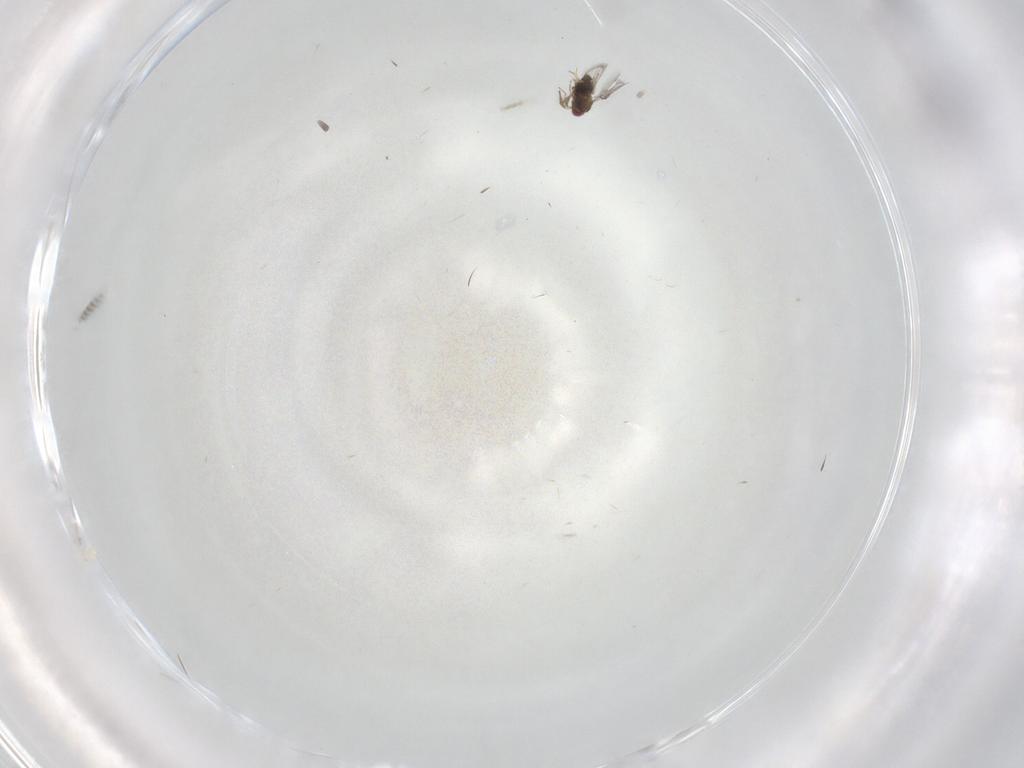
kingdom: Animalia
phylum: Arthropoda
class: Insecta
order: Hymenoptera
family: Trichogrammatidae
